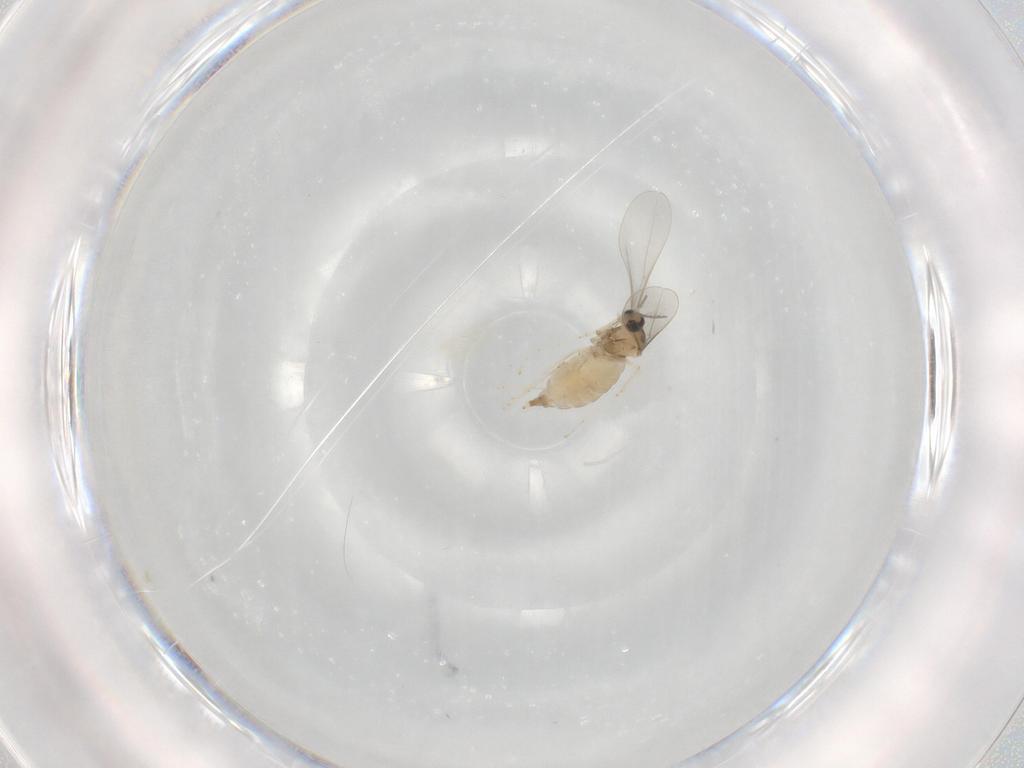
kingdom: Animalia
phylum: Arthropoda
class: Insecta
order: Diptera
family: Cecidomyiidae
